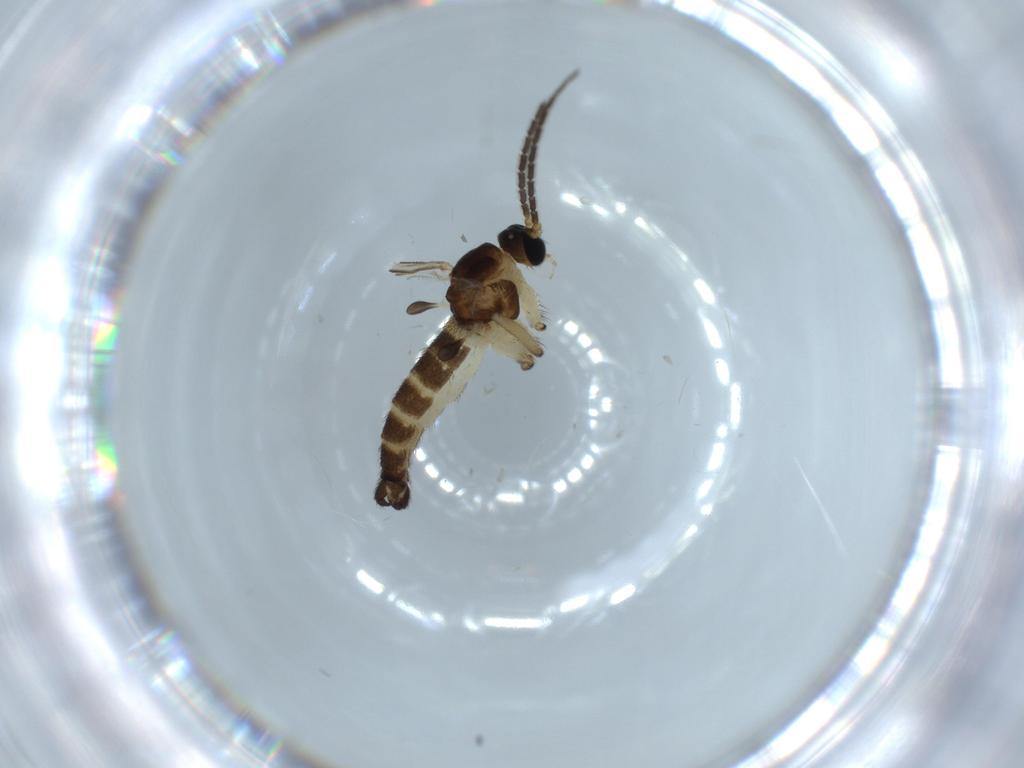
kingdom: Animalia
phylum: Arthropoda
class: Insecta
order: Diptera
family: Sciaridae
